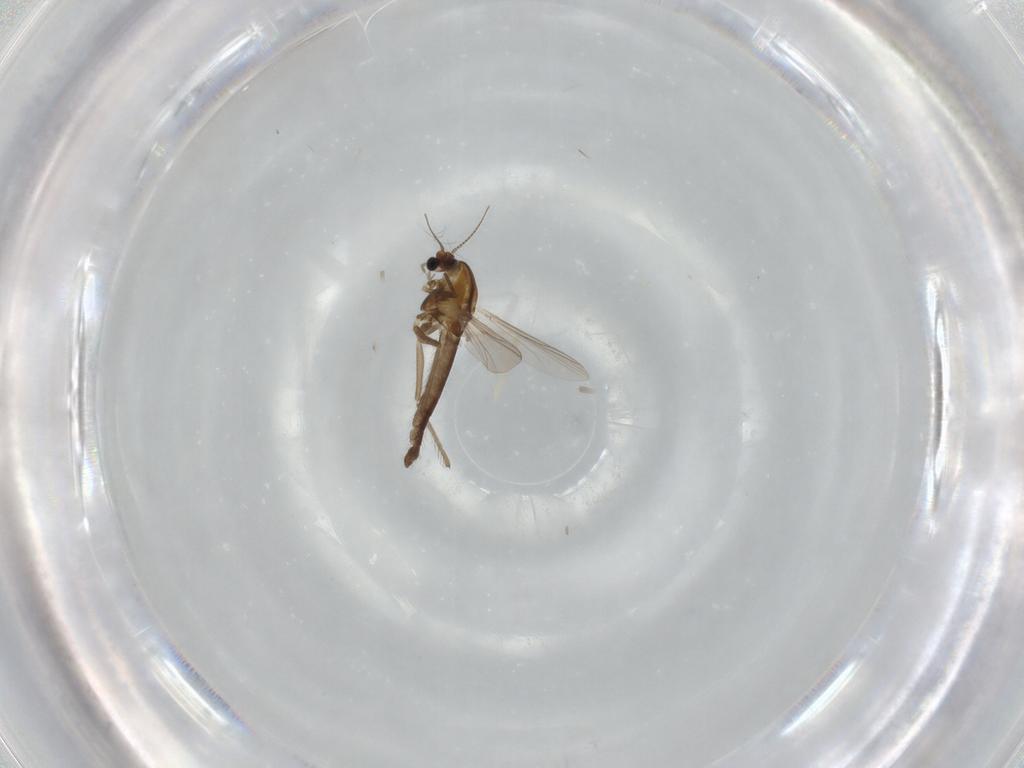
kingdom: Animalia
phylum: Arthropoda
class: Insecta
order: Diptera
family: Chironomidae
